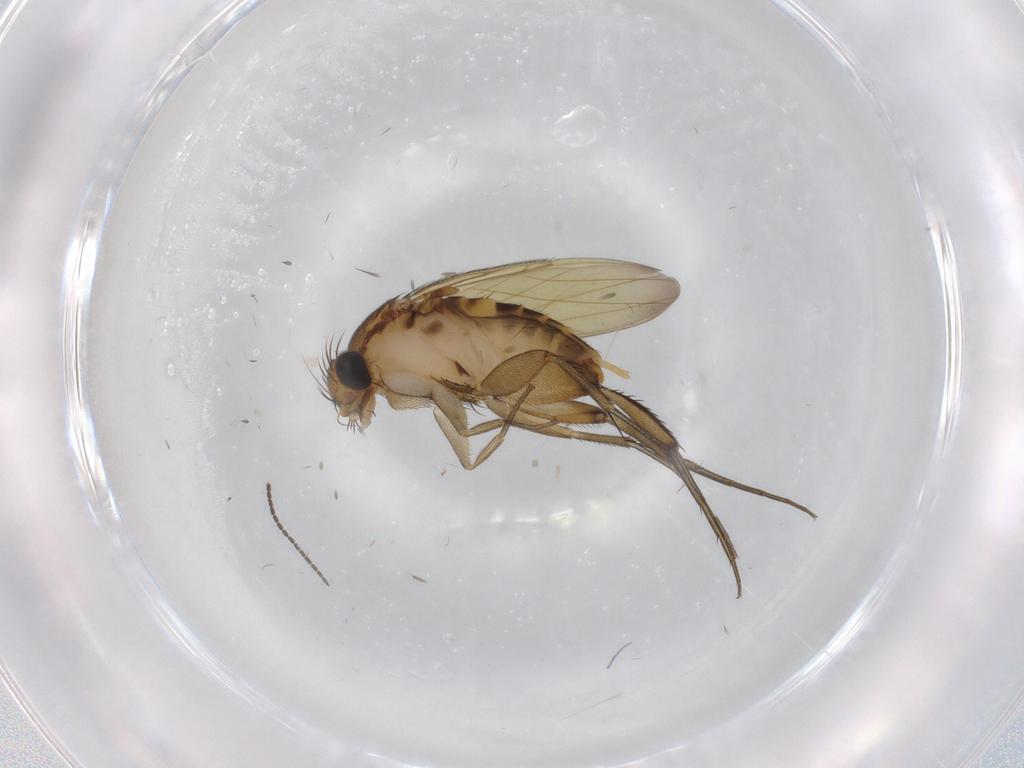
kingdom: Animalia
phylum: Arthropoda
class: Insecta
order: Diptera
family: Phoridae
